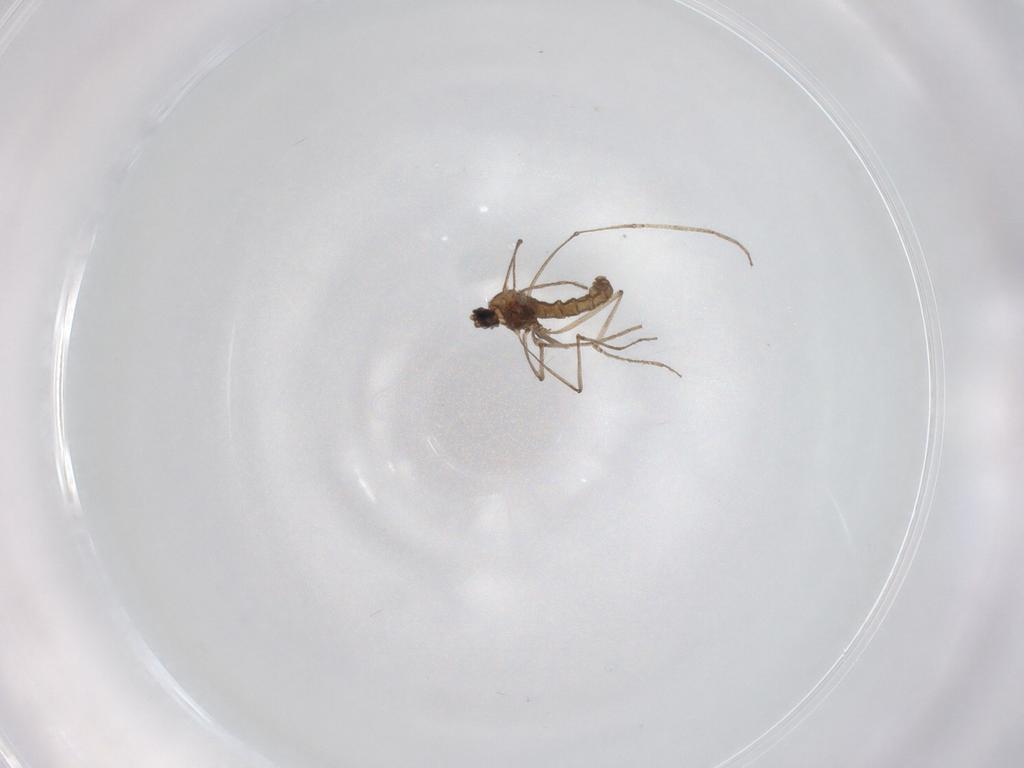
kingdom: Animalia
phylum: Arthropoda
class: Insecta
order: Diptera
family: Cecidomyiidae
